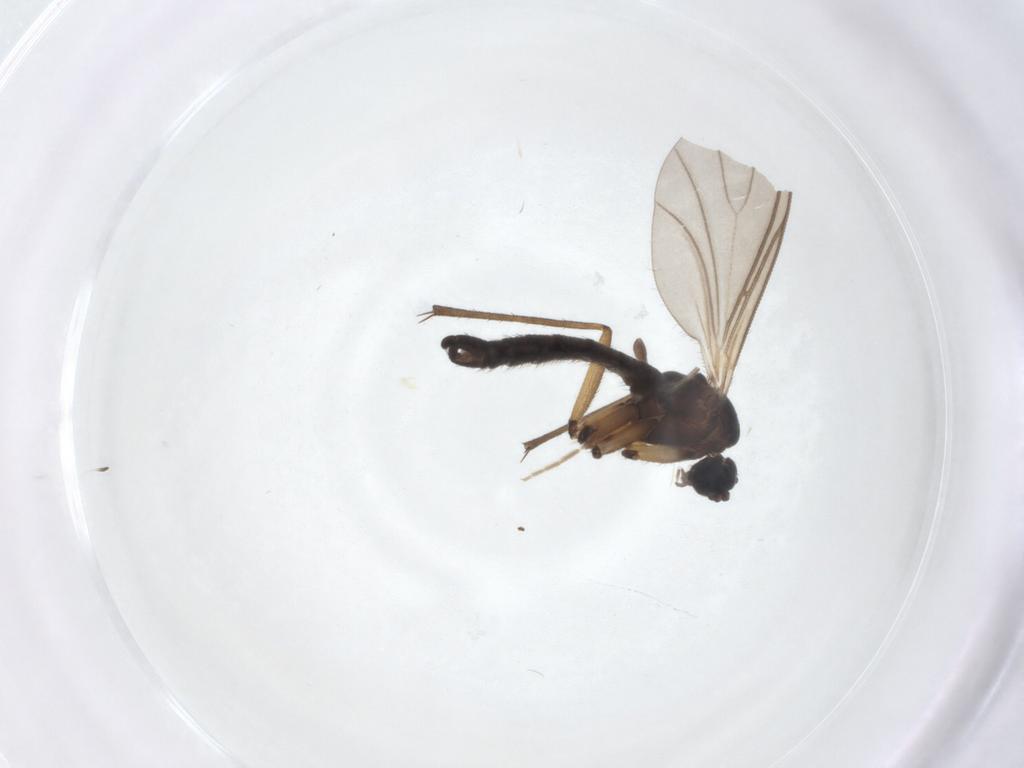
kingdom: Animalia
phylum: Arthropoda
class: Insecta
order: Diptera
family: Sciaridae
